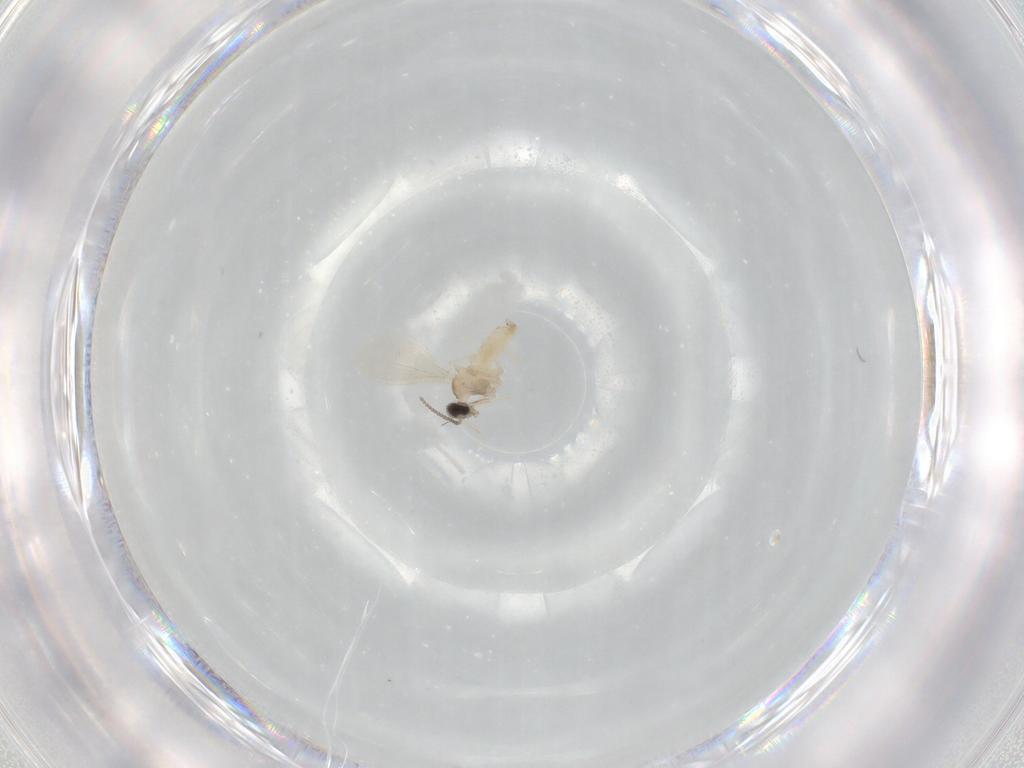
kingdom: Animalia
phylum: Arthropoda
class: Insecta
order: Diptera
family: Cecidomyiidae
